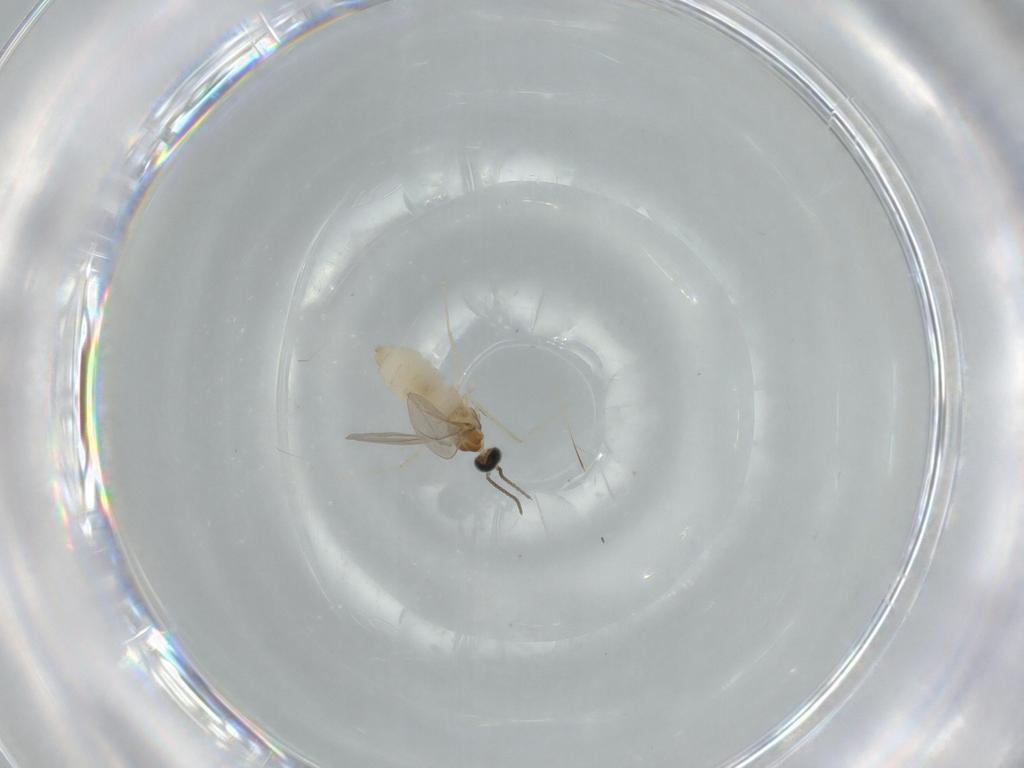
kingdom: Animalia
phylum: Arthropoda
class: Insecta
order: Diptera
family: Cecidomyiidae
